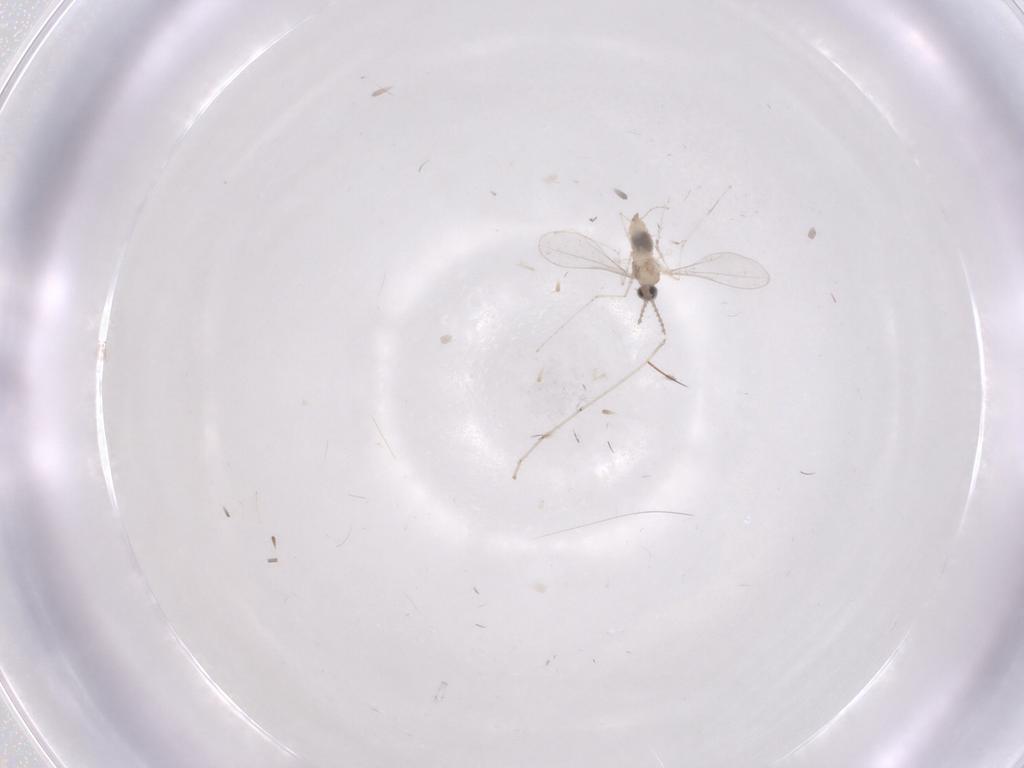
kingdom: Animalia
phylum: Arthropoda
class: Insecta
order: Diptera
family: Cecidomyiidae
